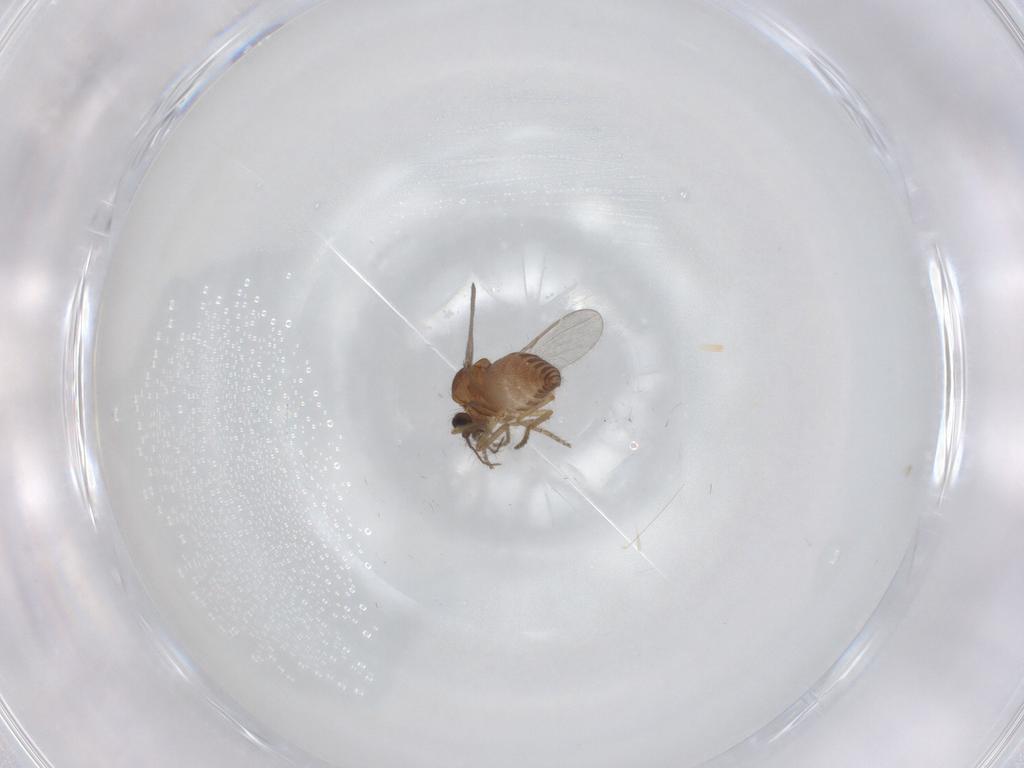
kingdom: Animalia
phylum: Arthropoda
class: Insecta
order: Diptera
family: Ceratopogonidae
